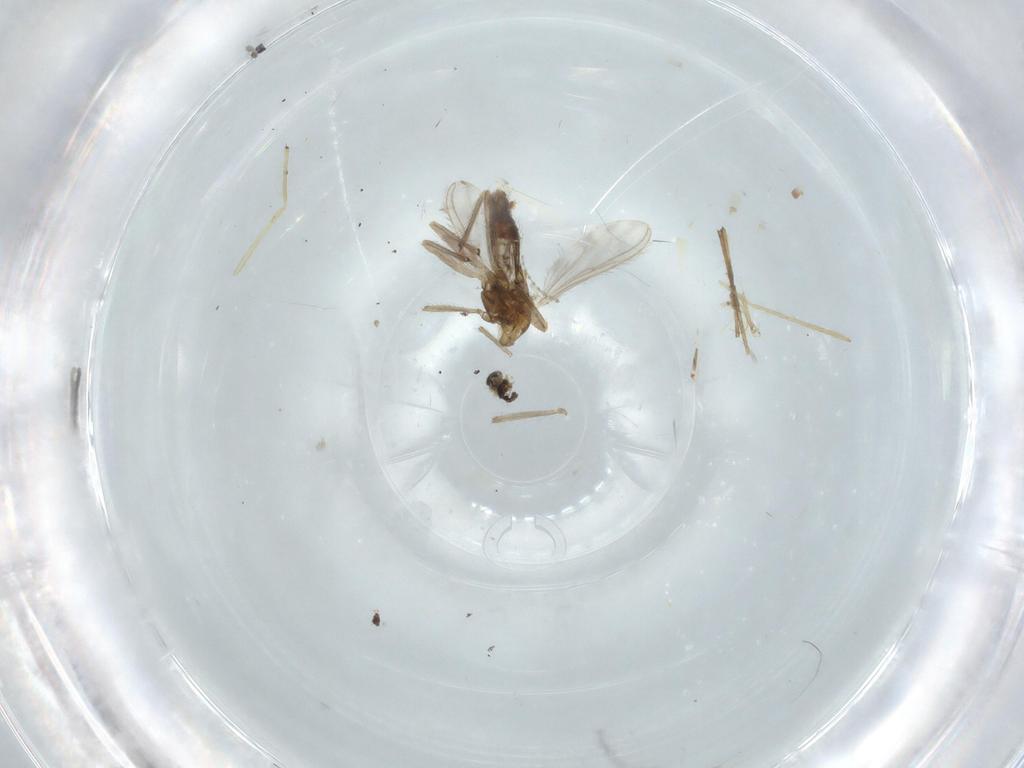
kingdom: Animalia
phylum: Arthropoda
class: Insecta
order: Diptera
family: Chironomidae
